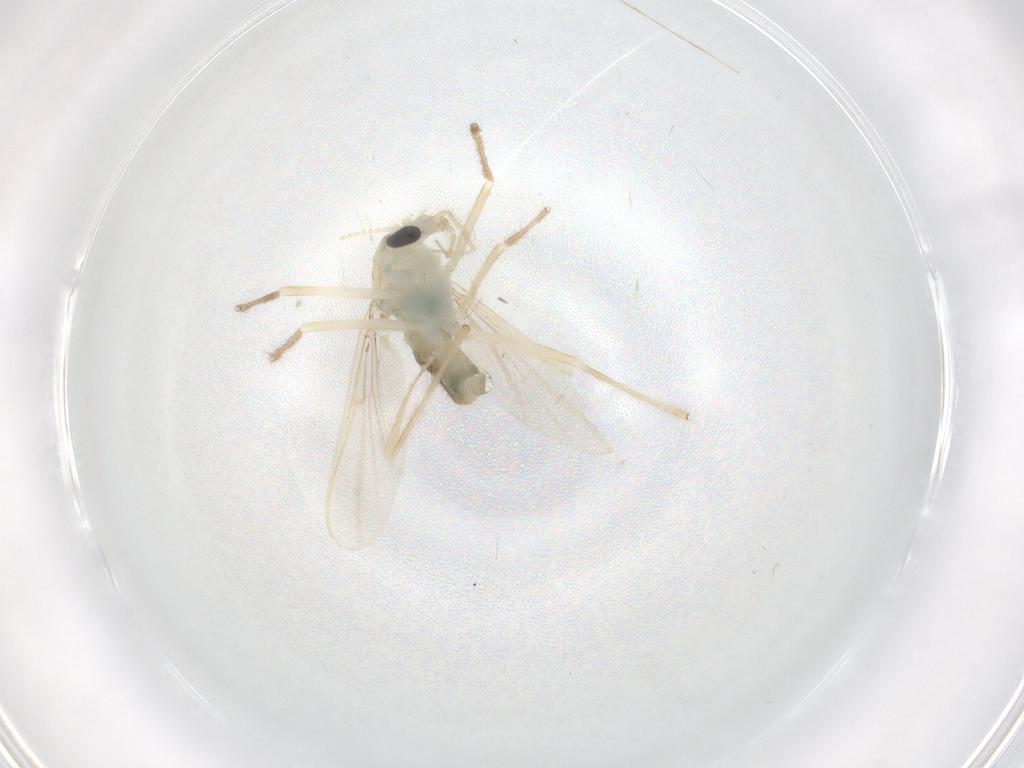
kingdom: Animalia
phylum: Arthropoda
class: Insecta
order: Diptera
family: Chironomidae
